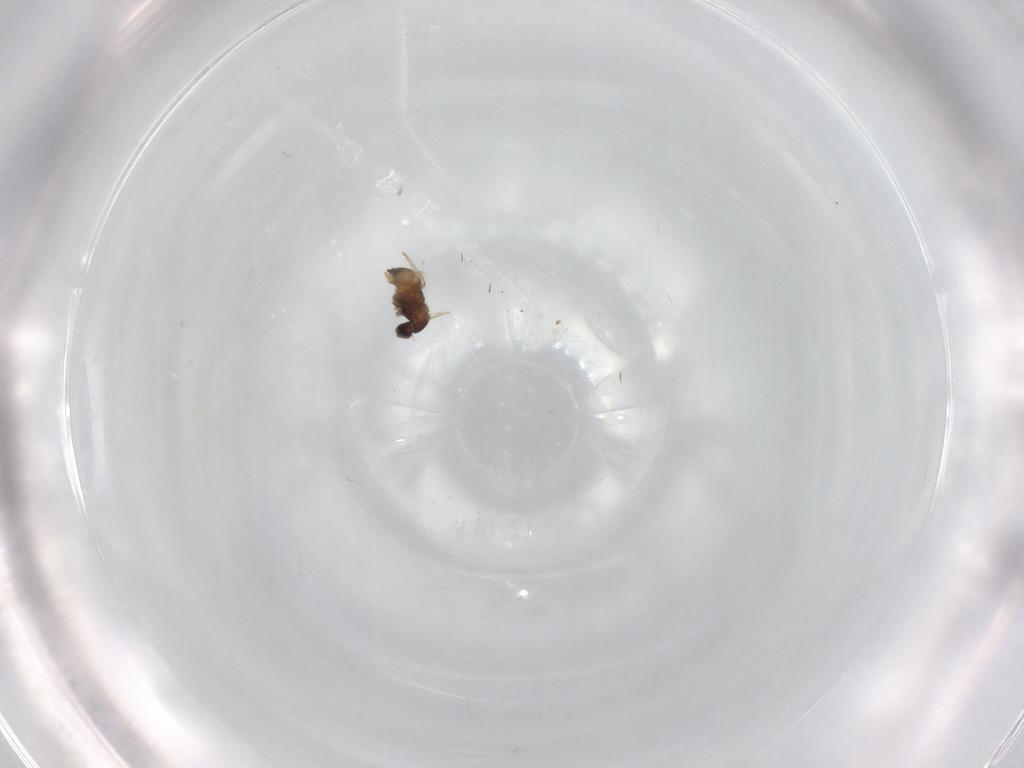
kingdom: Animalia
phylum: Arthropoda
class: Insecta
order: Diptera
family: Cecidomyiidae
